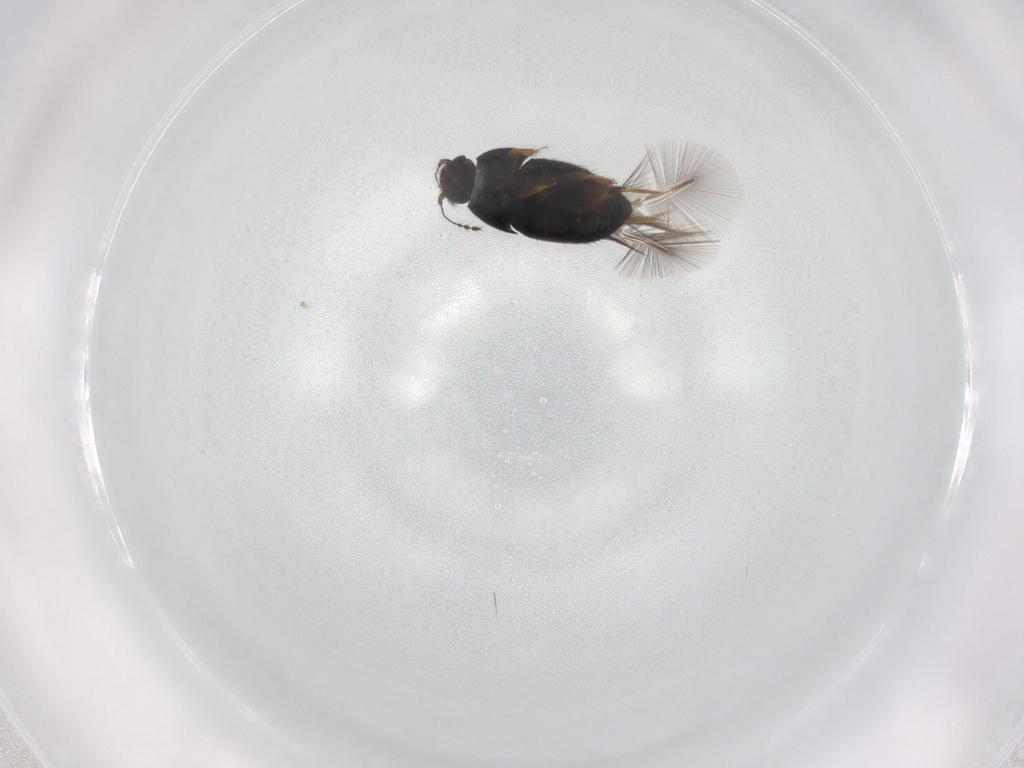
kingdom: Animalia
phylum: Arthropoda
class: Insecta
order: Coleoptera
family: Ptiliidae
